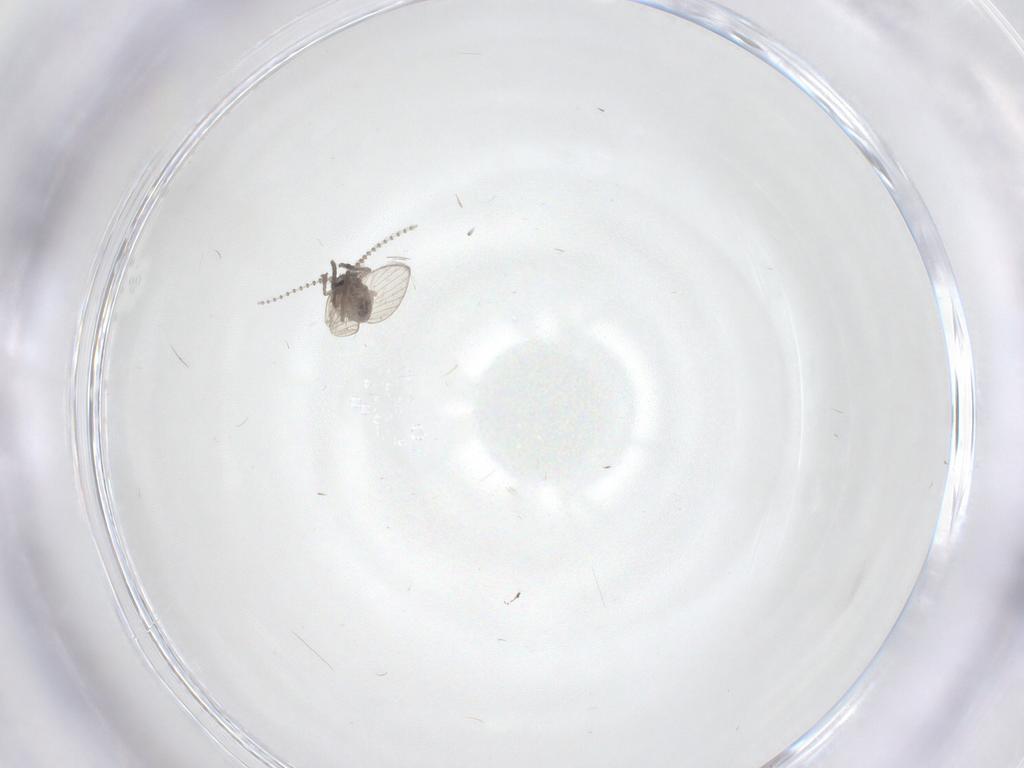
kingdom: Animalia
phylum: Arthropoda
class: Insecta
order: Diptera
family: Psychodidae
